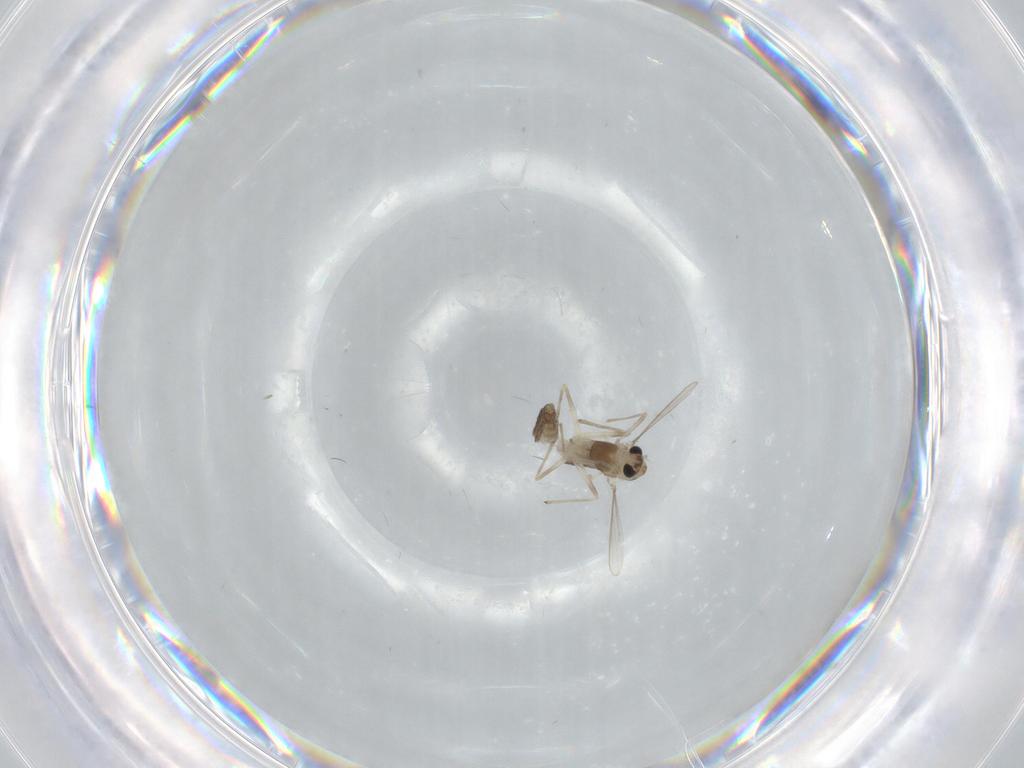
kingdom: Animalia
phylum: Arthropoda
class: Insecta
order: Diptera
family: Chironomidae
